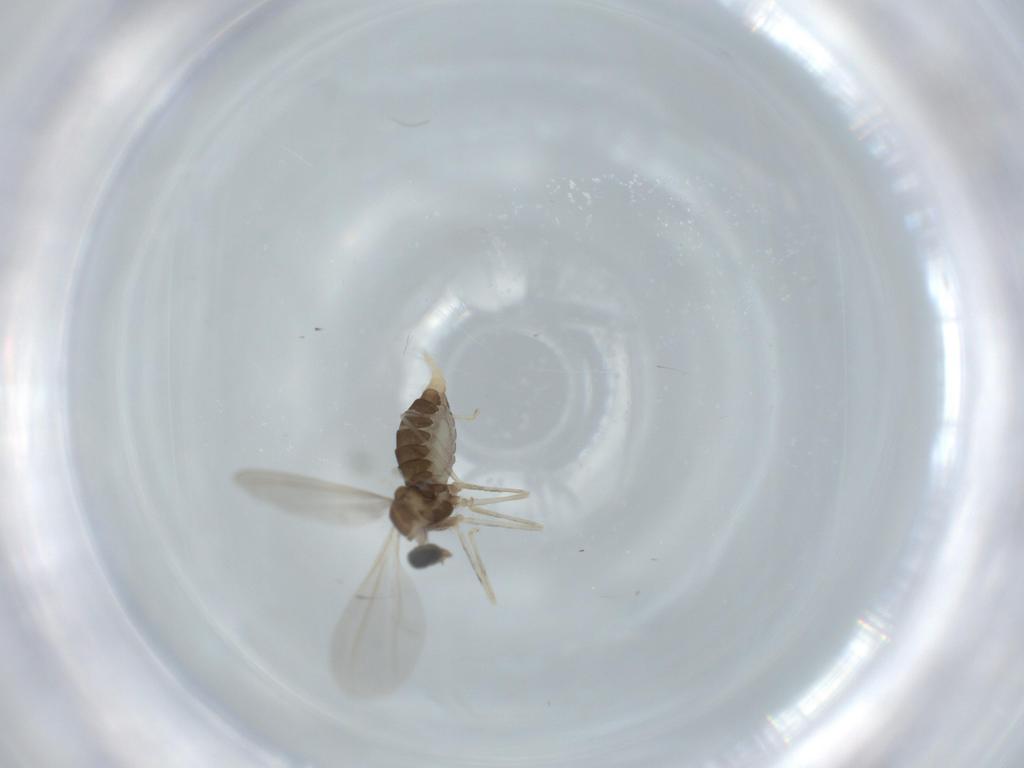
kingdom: Animalia
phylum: Arthropoda
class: Insecta
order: Diptera
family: Cecidomyiidae
